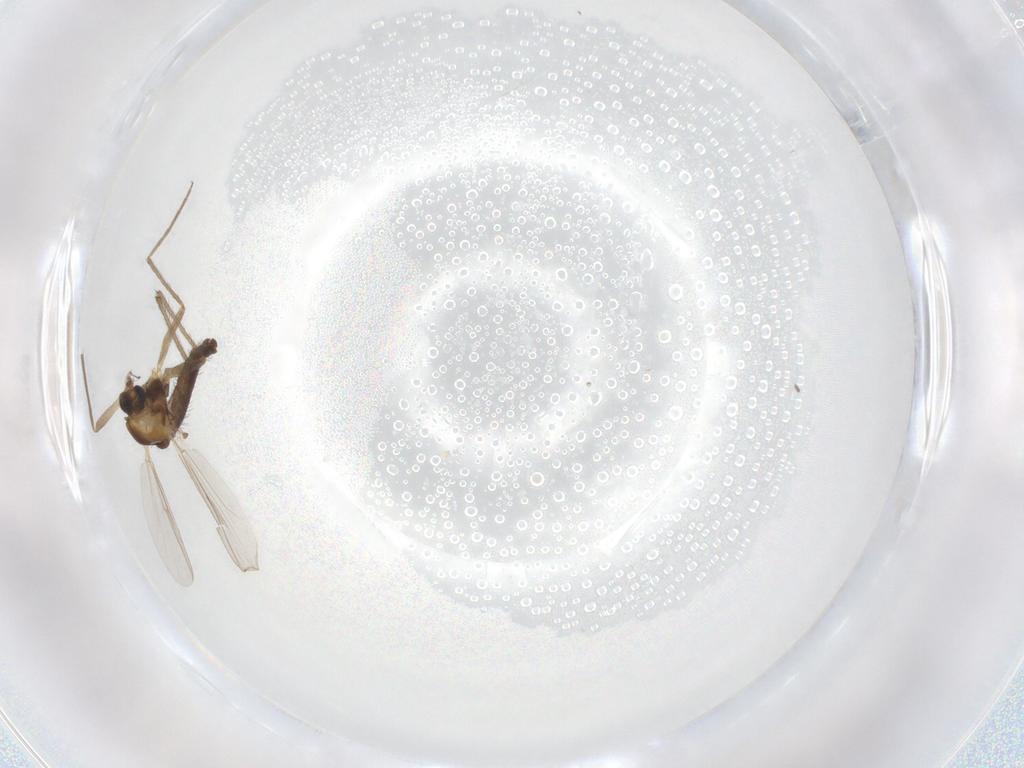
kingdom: Animalia
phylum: Arthropoda
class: Insecta
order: Diptera
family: Chironomidae
